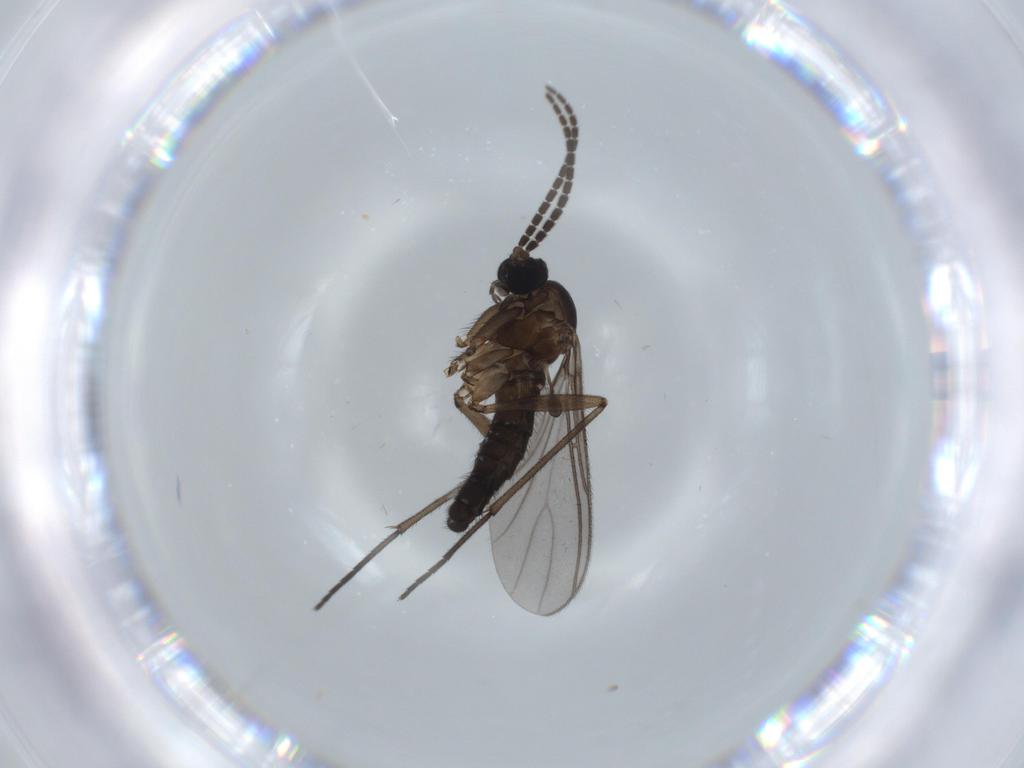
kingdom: Animalia
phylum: Arthropoda
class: Insecta
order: Diptera
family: Sciaridae
